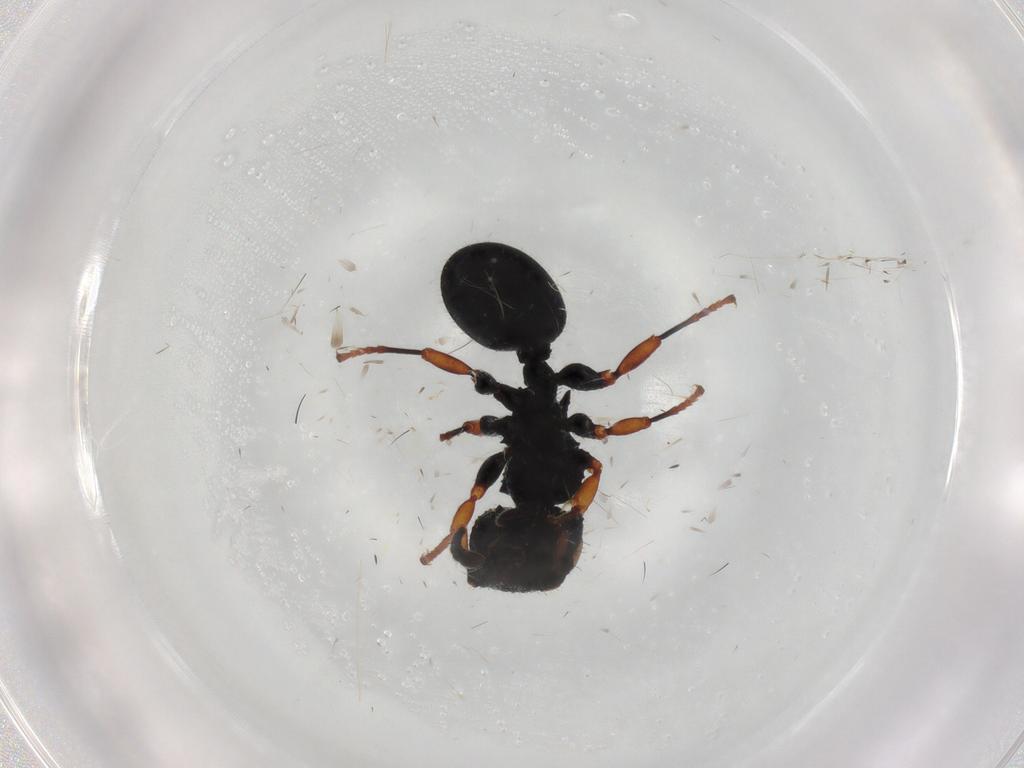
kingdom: Animalia
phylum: Arthropoda
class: Insecta
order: Hymenoptera
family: Formicidae
